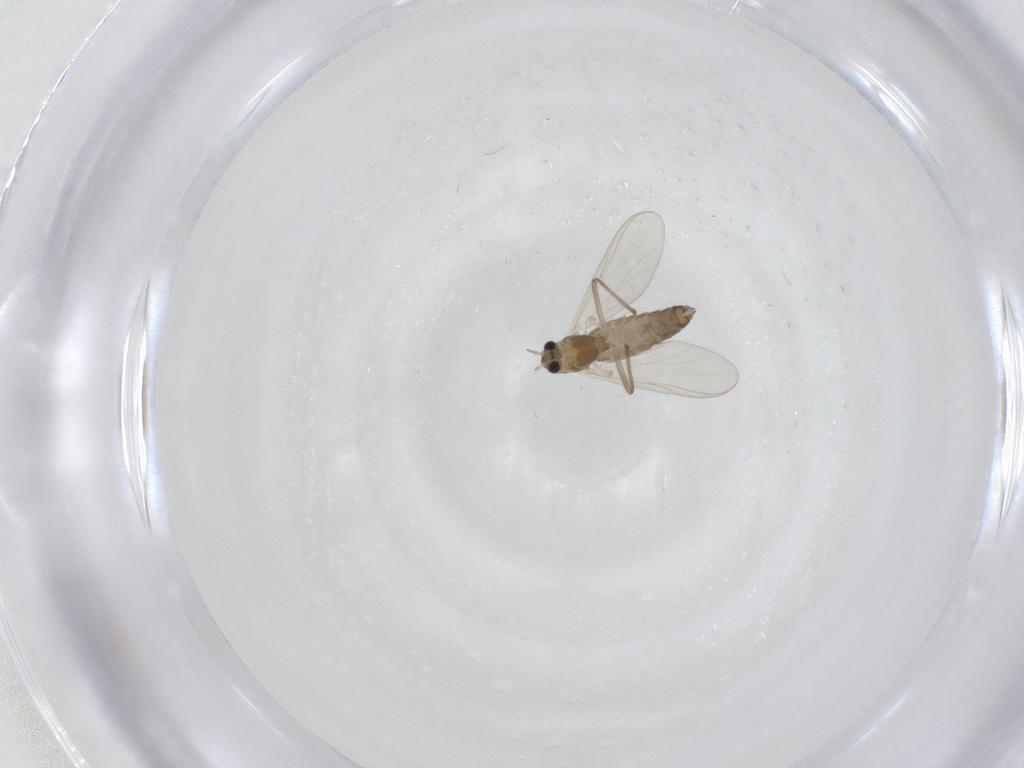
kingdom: Animalia
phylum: Arthropoda
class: Insecta
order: Diptera
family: Chironomidae
